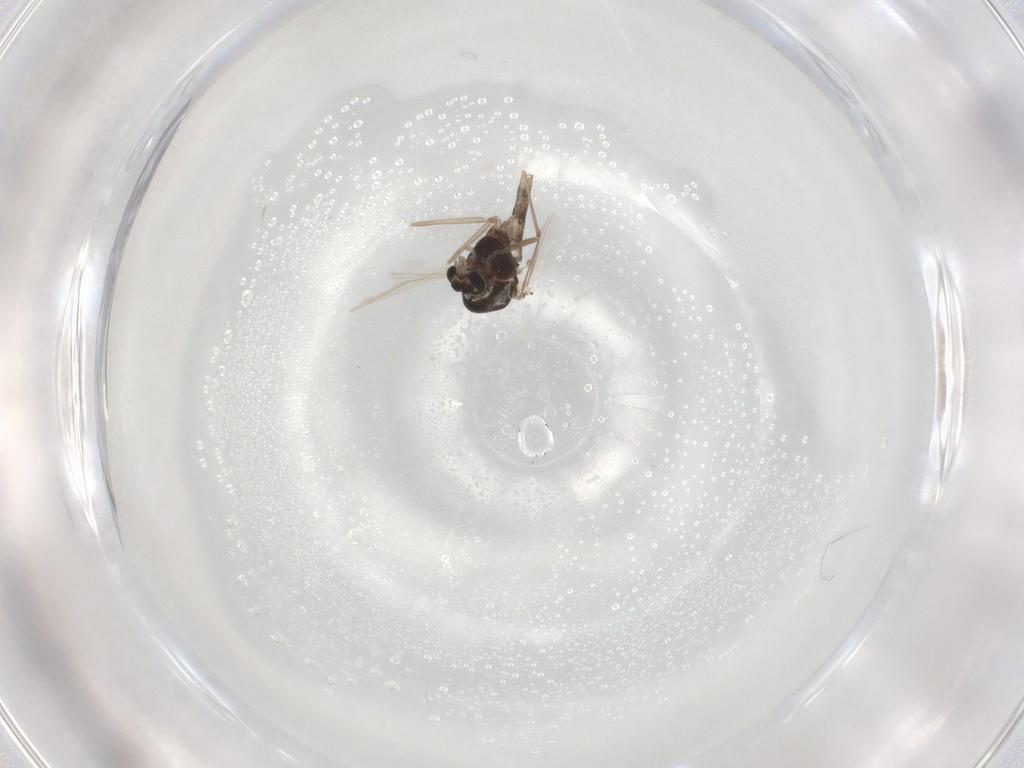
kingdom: Animalia
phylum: Arthropoda
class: Insecta
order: Diptera
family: Chironomidae
